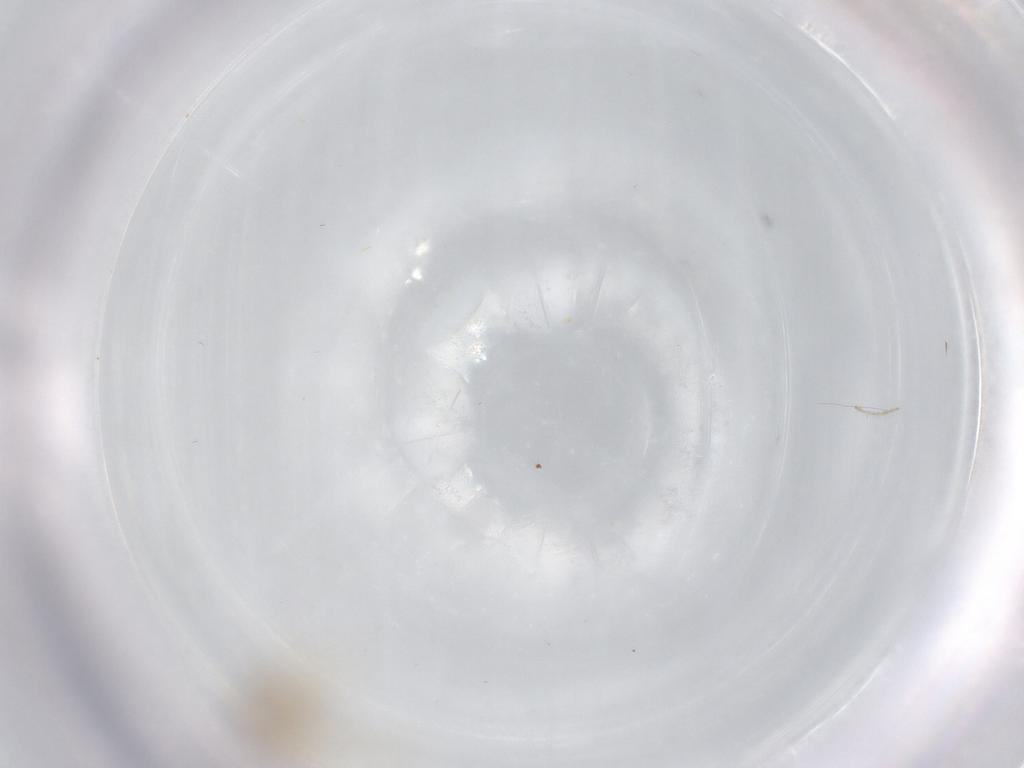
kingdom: Animalia
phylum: Arthropoda
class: Insecta
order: Diptera
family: Chironomidae
